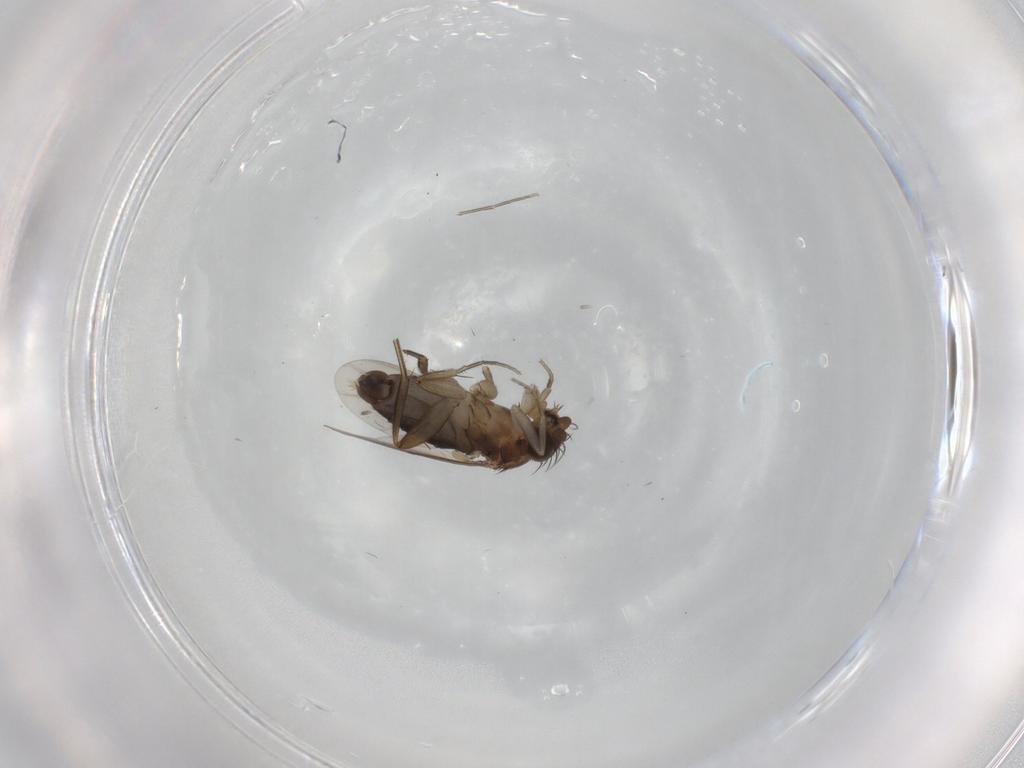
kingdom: Animalia
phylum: Arthropoda
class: Insecta
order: Diptera
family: Phoridae
